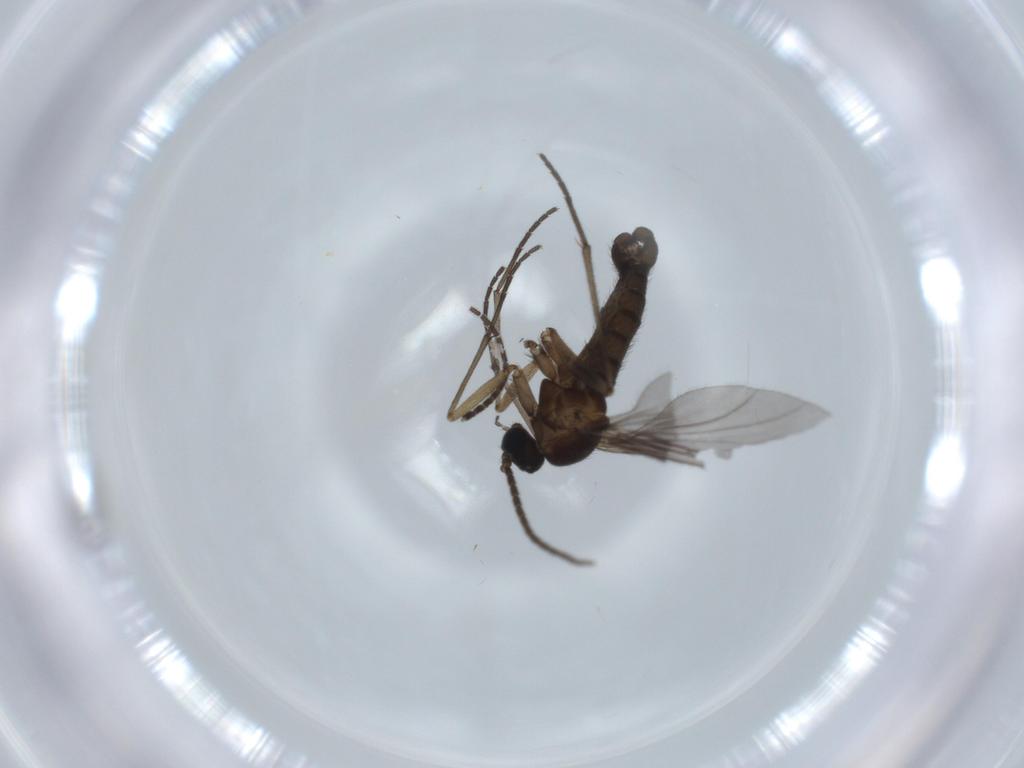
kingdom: Animalia
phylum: Arthropoda
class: Insecta
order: Diptera
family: Sciaridae
